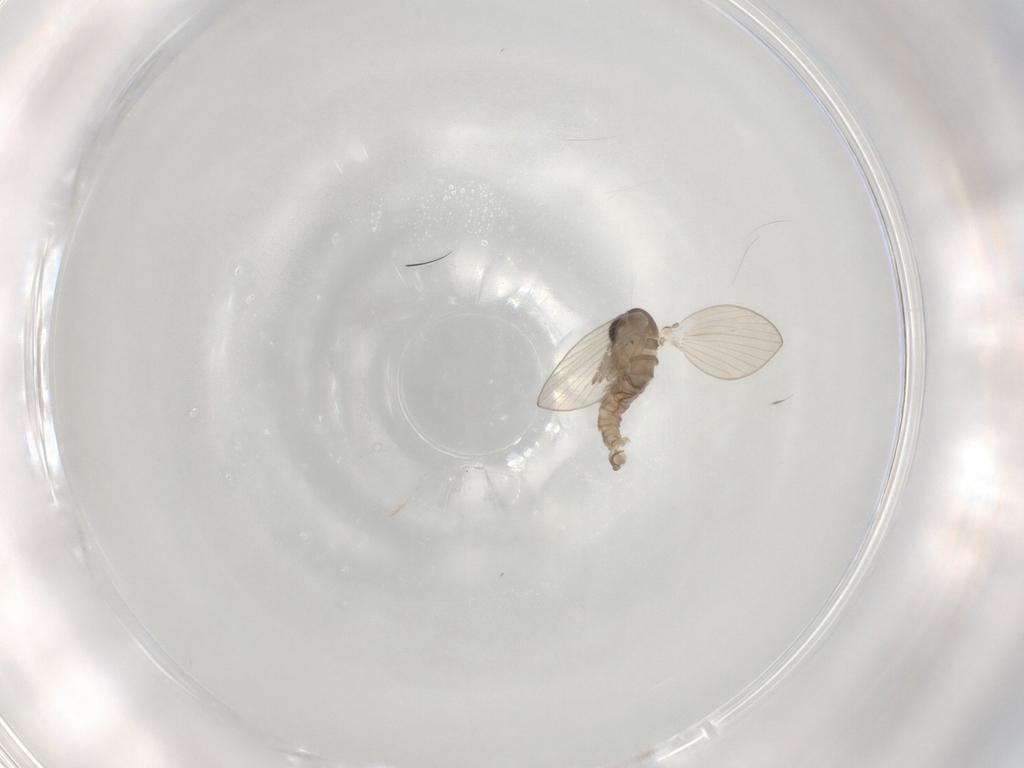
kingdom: Animalia
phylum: Arthropoda
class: Insecta
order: Diptera
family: Psychodidae
